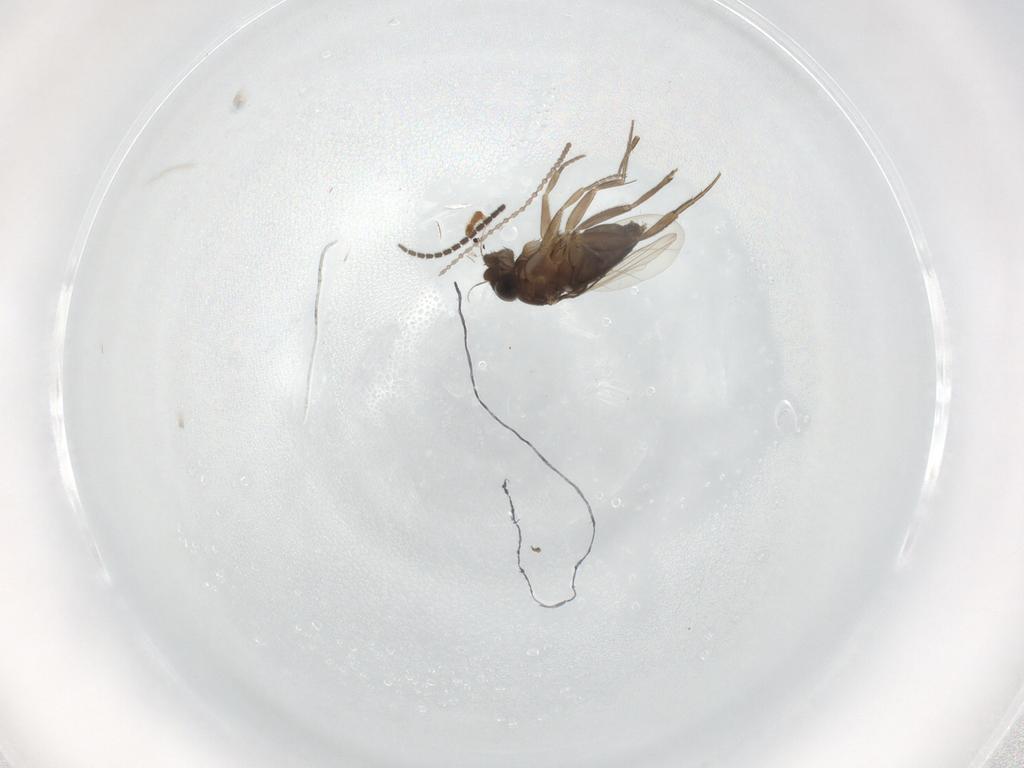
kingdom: Animalia
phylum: Arthropoda
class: Insecta
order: Diptera
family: Phoridae
